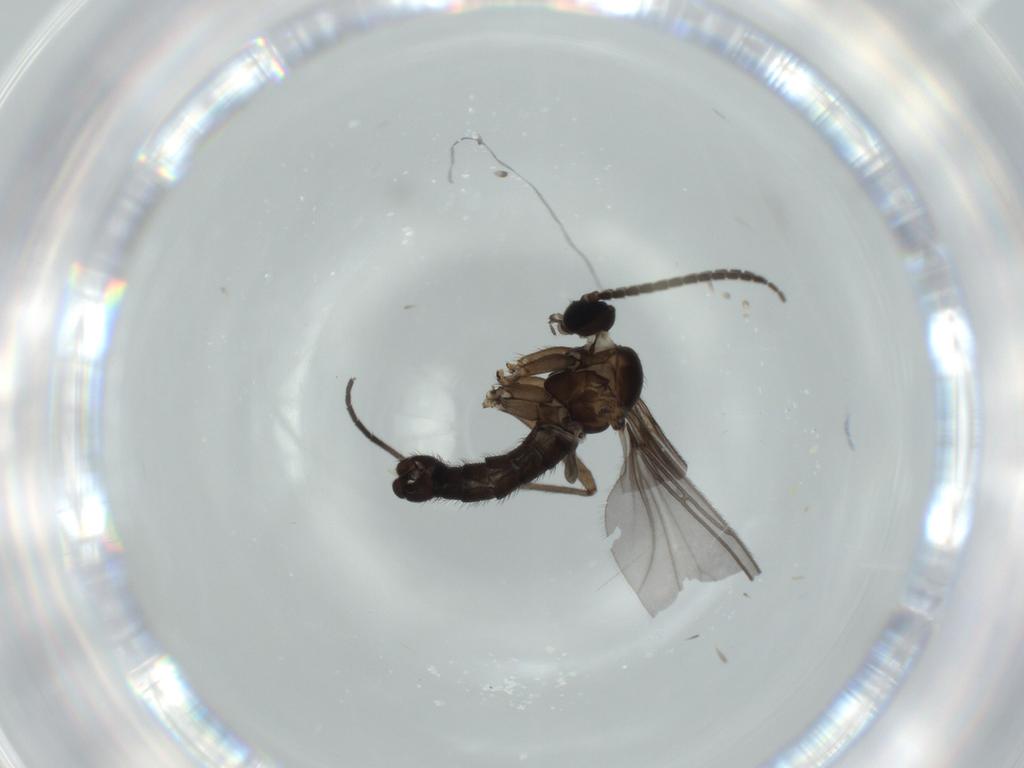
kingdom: Animalia
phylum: Arthropoda
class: Insecta
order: Diptera
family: Sciaridae
